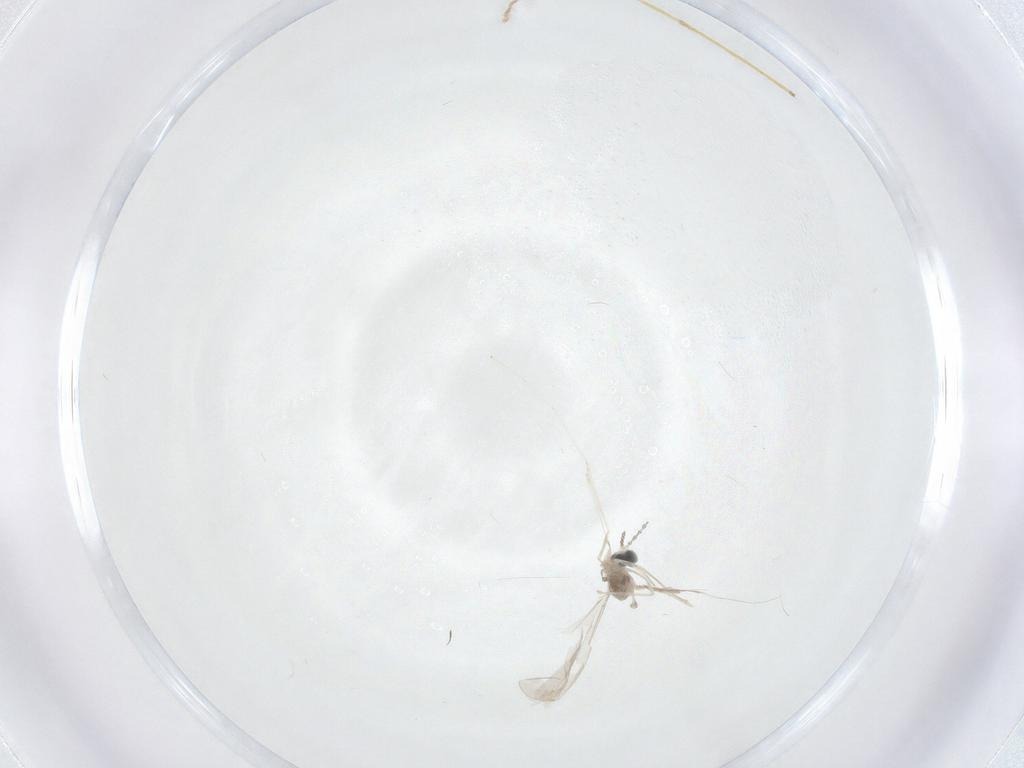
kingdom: Animalia
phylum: Arthropoda
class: Insecta
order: Diptera
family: Cecidomyiidae
